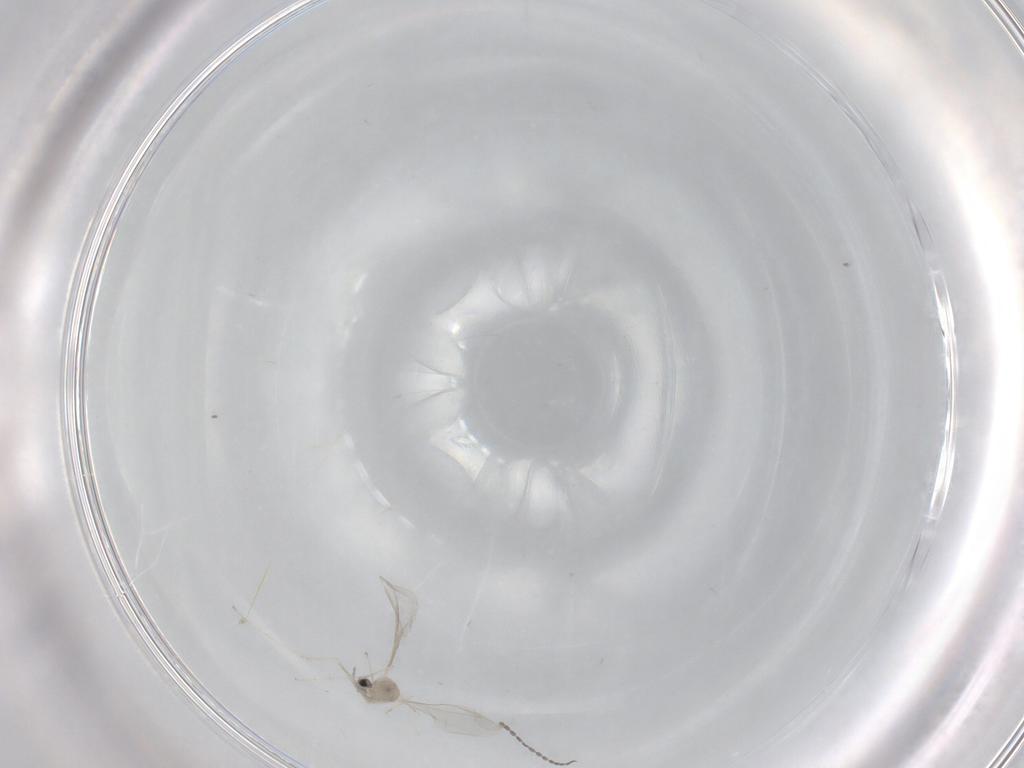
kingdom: Animalia
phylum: Arthropoda
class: Insecta
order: Diptera
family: Cecidomyiidae
